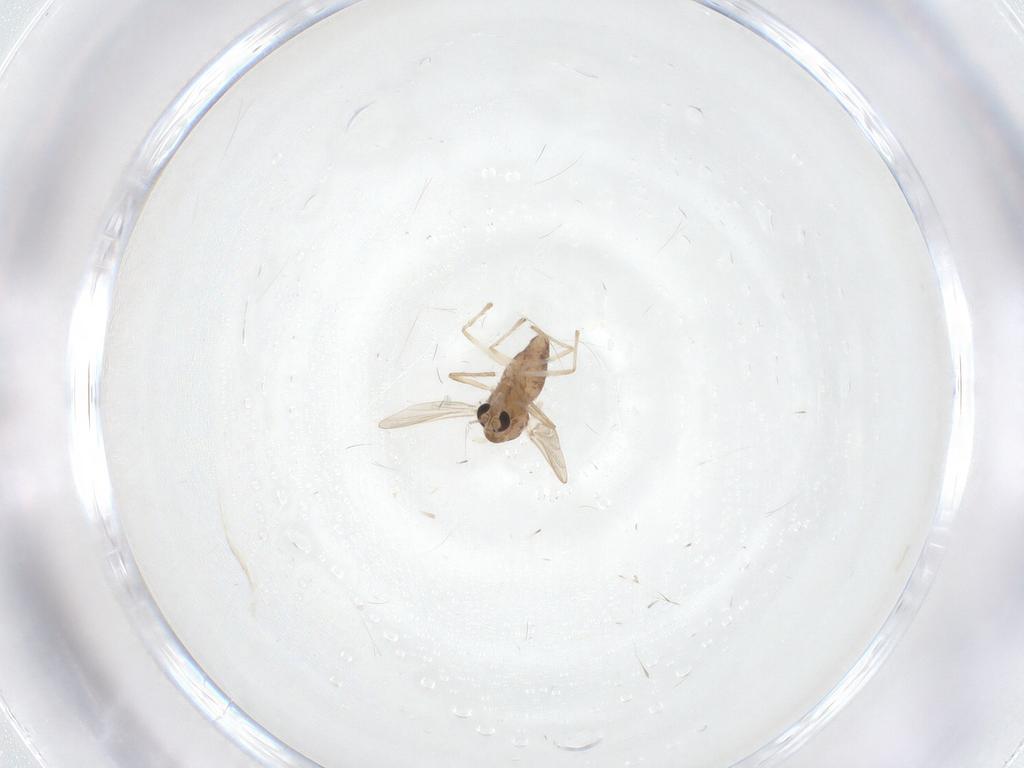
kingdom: Animalia
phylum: Arthropoda
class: Insecta
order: Diptera
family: Chironomidae
